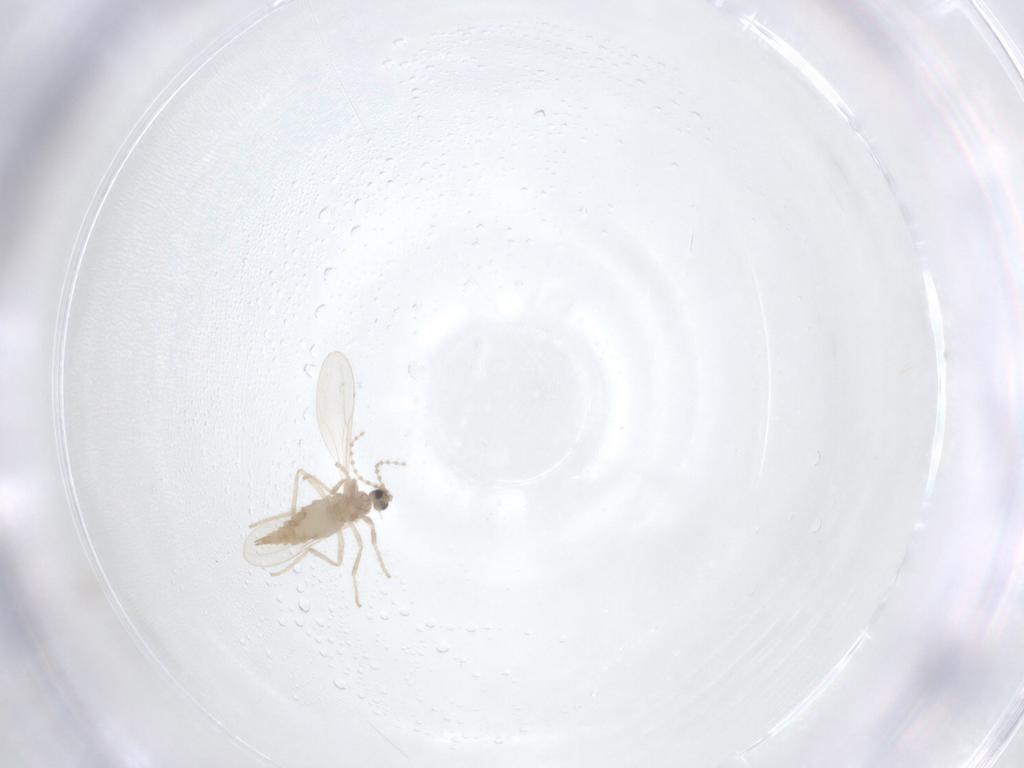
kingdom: Animalia
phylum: Arthropoda
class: Insecta
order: Diptera
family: Cecidomyiidae
